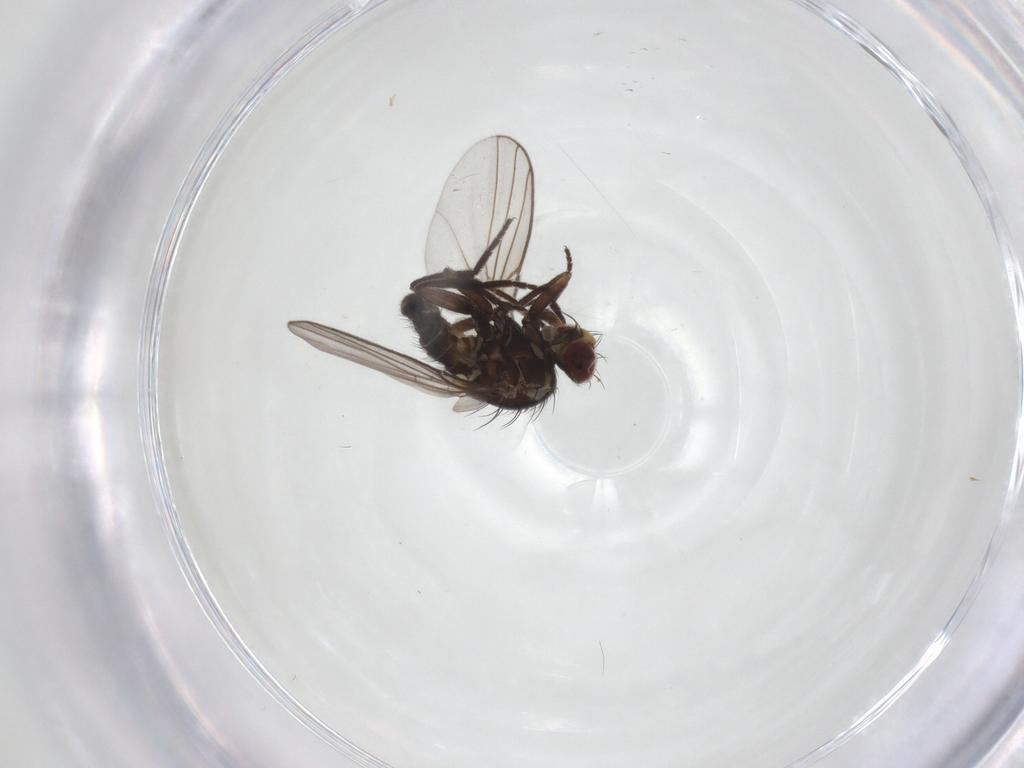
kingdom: Animalia
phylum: Arthropoda
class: Insecta
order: Diptera
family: Agromyzidae
